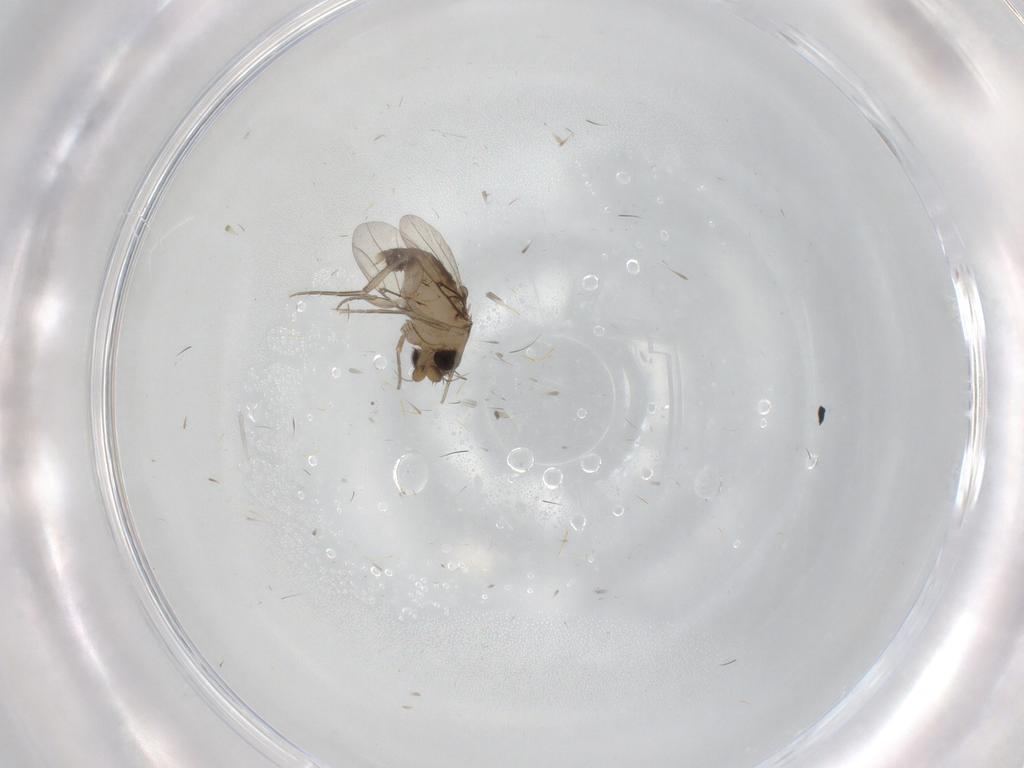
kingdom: Animalia
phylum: Arthropoda
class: Insecta
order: Diptera
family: Phoridae
